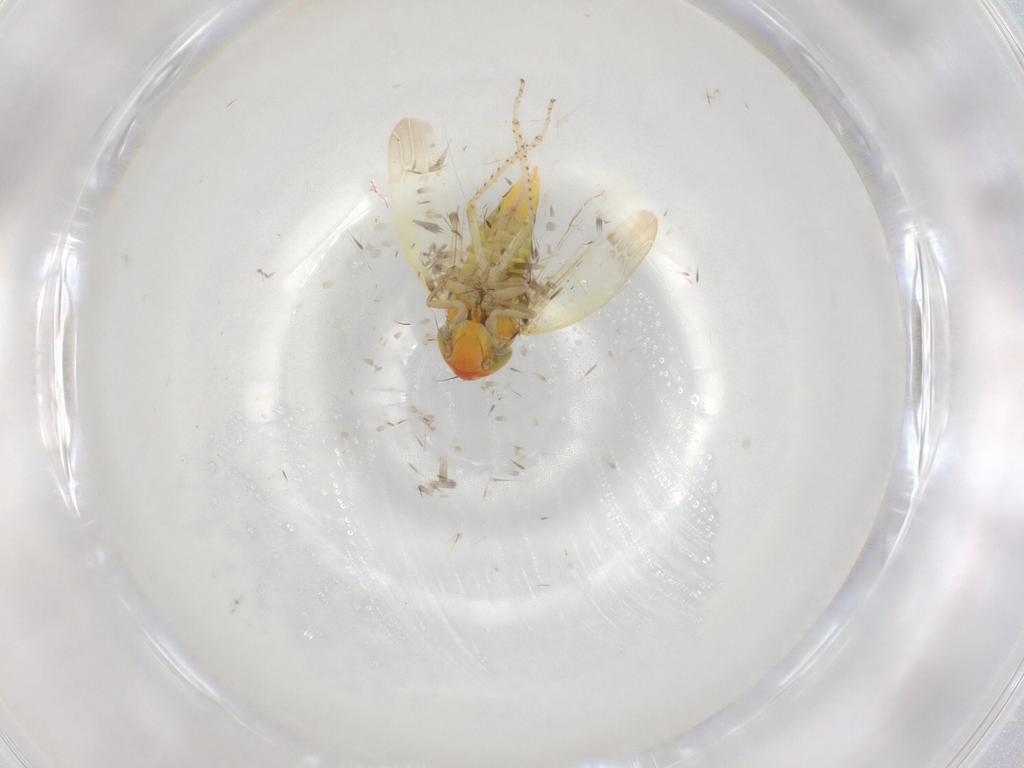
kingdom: Animalia
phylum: Arthropoda
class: Insecta
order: Hemiptera
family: Cicadellidae
